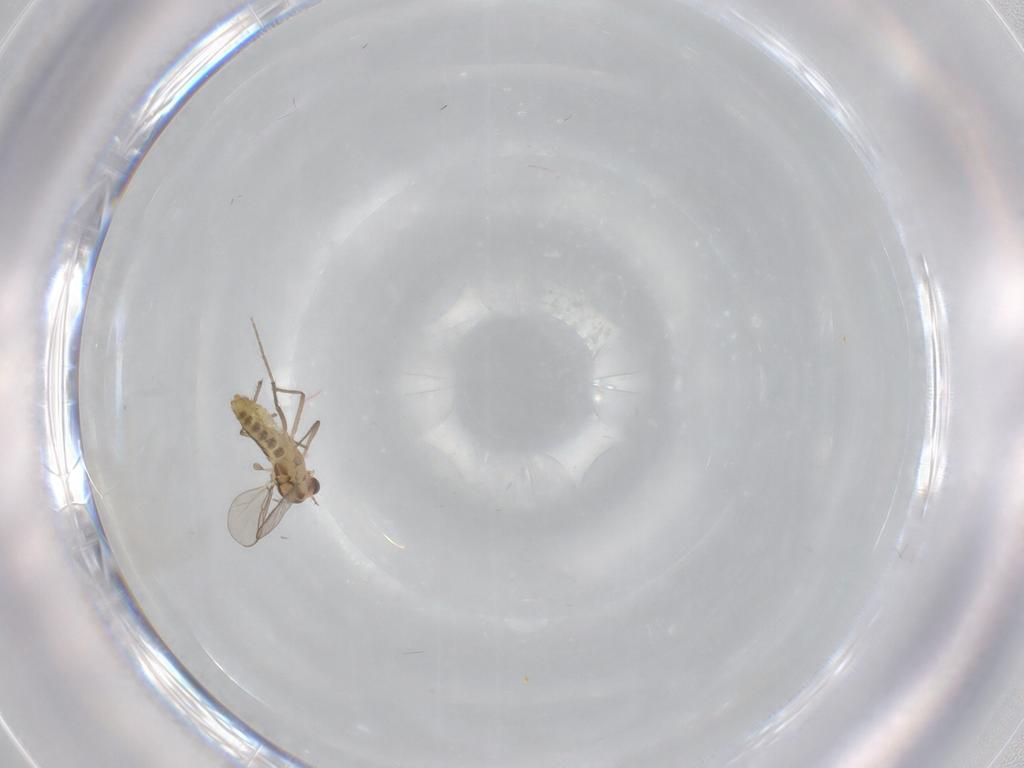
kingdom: Animalia
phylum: Arthropoda
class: Insecta
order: Diptera
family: Chironomidae
